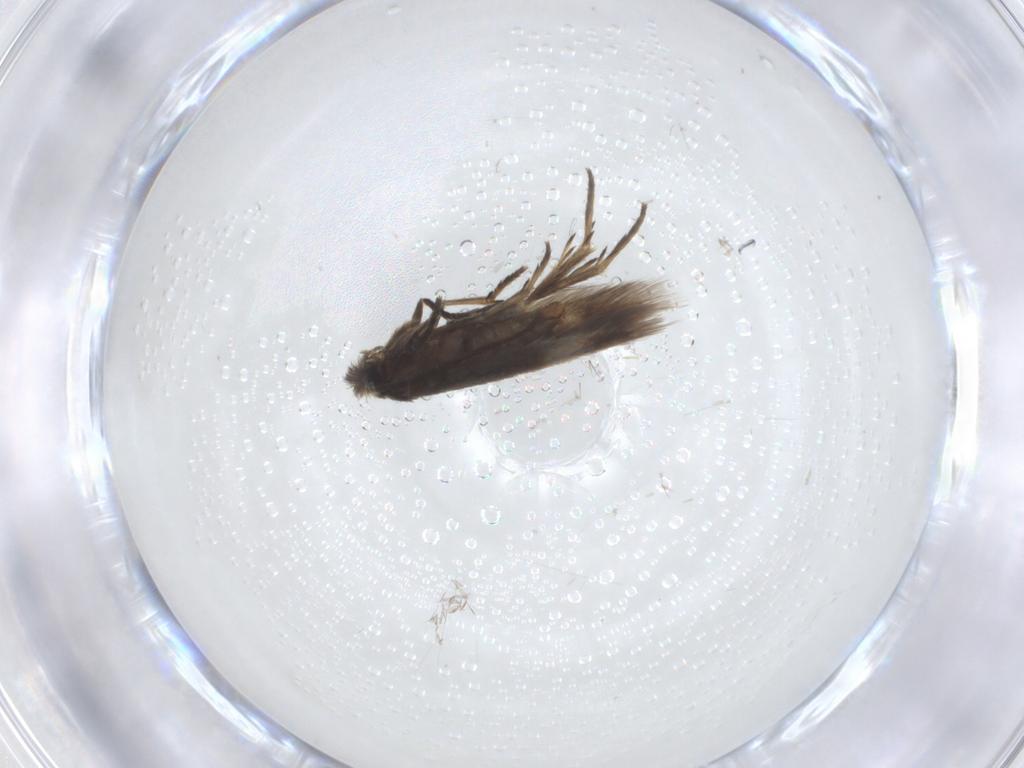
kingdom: Animalia
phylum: Arthropoda
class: Insecta
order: Lepidoptera
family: Nepticulidae
